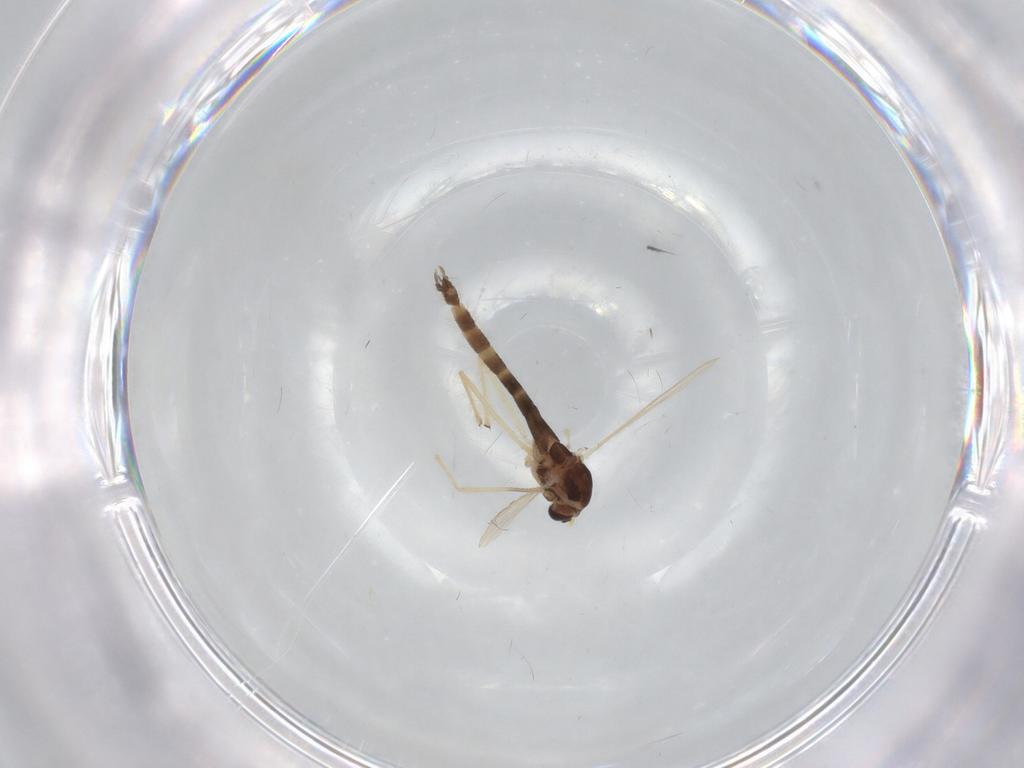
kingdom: Animalia
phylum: Arthropoda
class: Insecta
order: Diptera
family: Chironomidae
